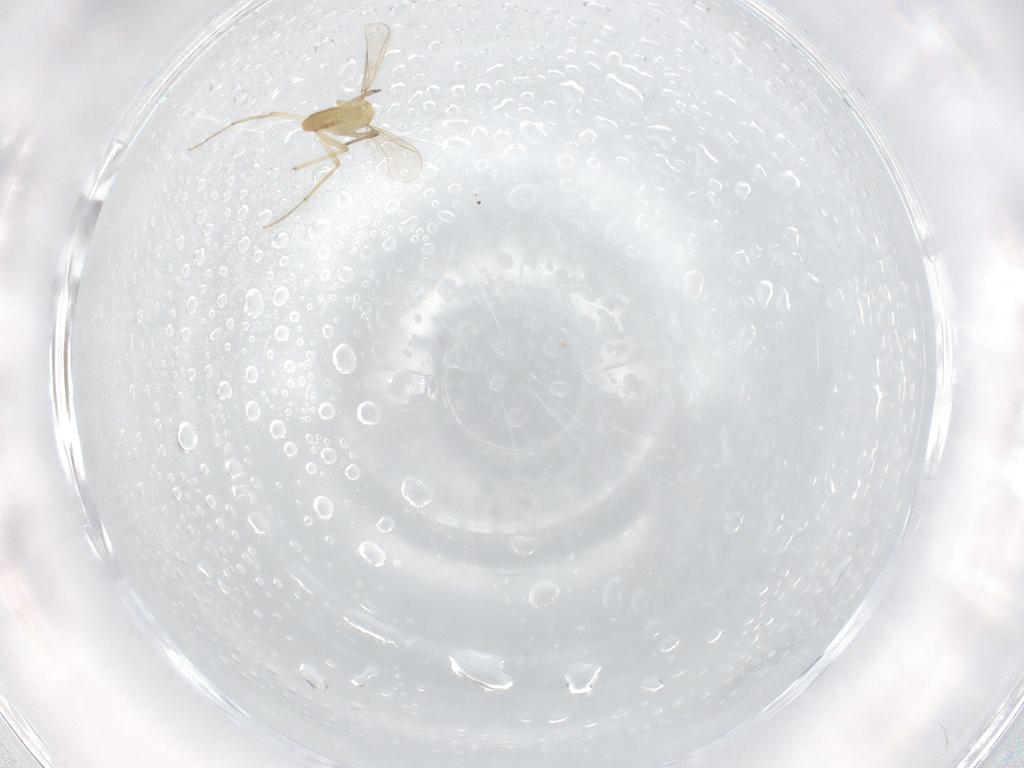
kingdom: Animalia
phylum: Arthropoda
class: Insecta
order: Diptera
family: Chironomidae
